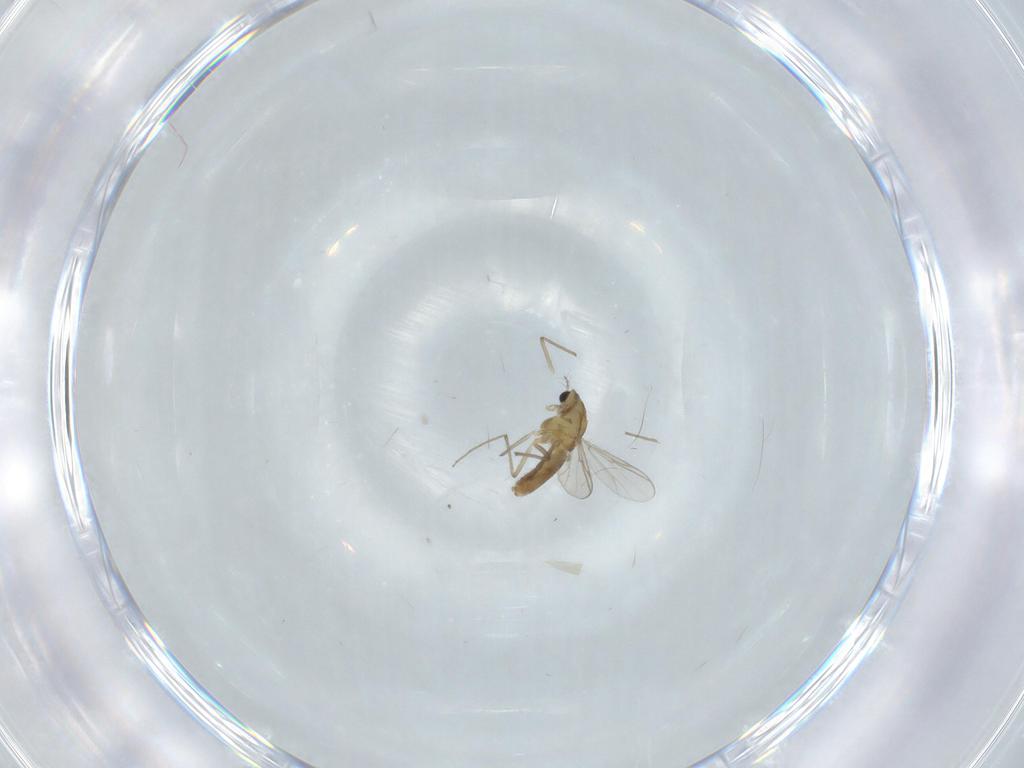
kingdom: Animalia
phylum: Arthropoda
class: Insecta
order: Diptera
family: Chironomidae
